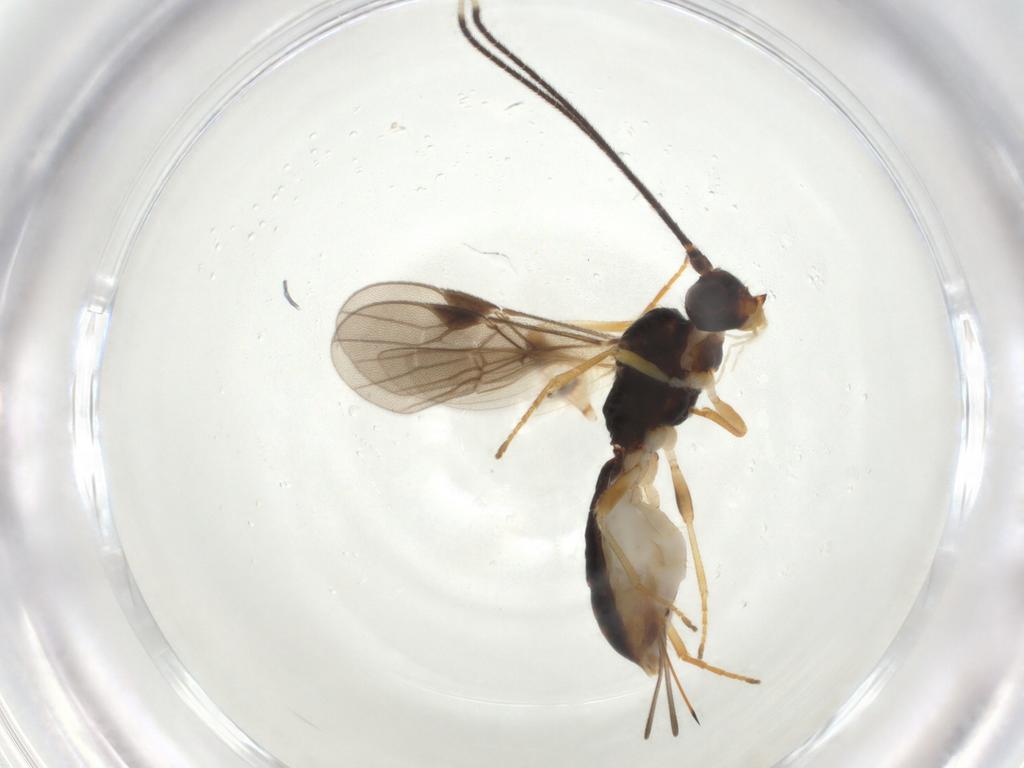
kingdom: Animalia
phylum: Arthropoda
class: Insecta
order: Hymenoptera
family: Braconidae
